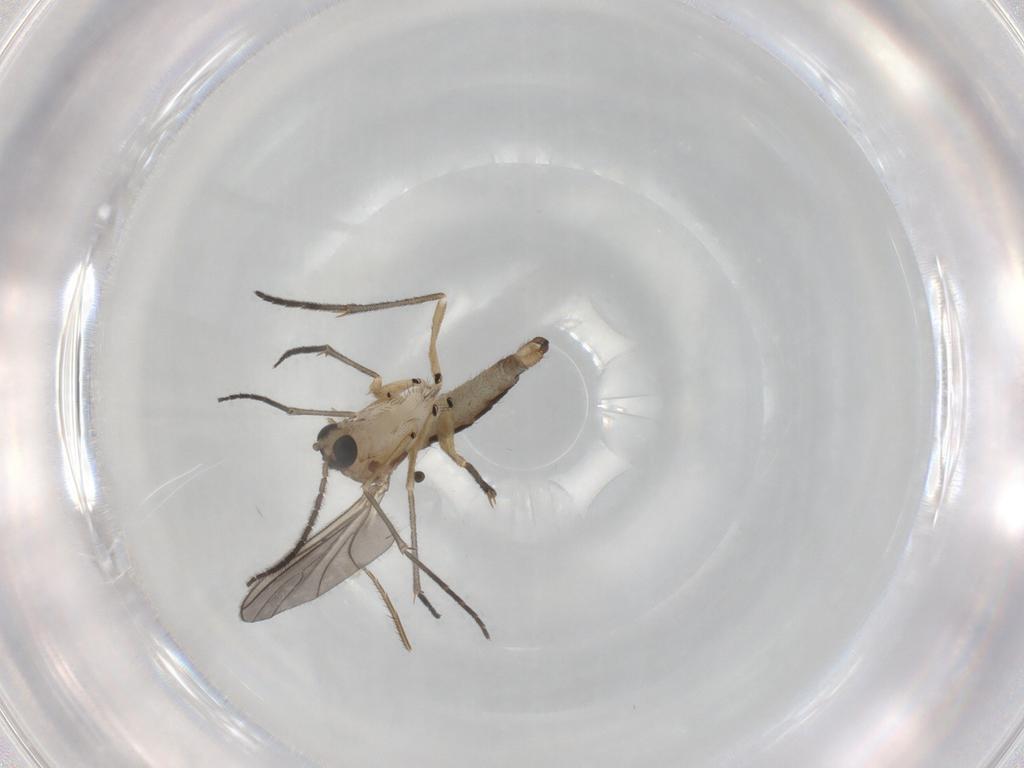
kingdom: Animalia
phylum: Arthropoda
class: Insecta
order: Diptera
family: Sciaridae
